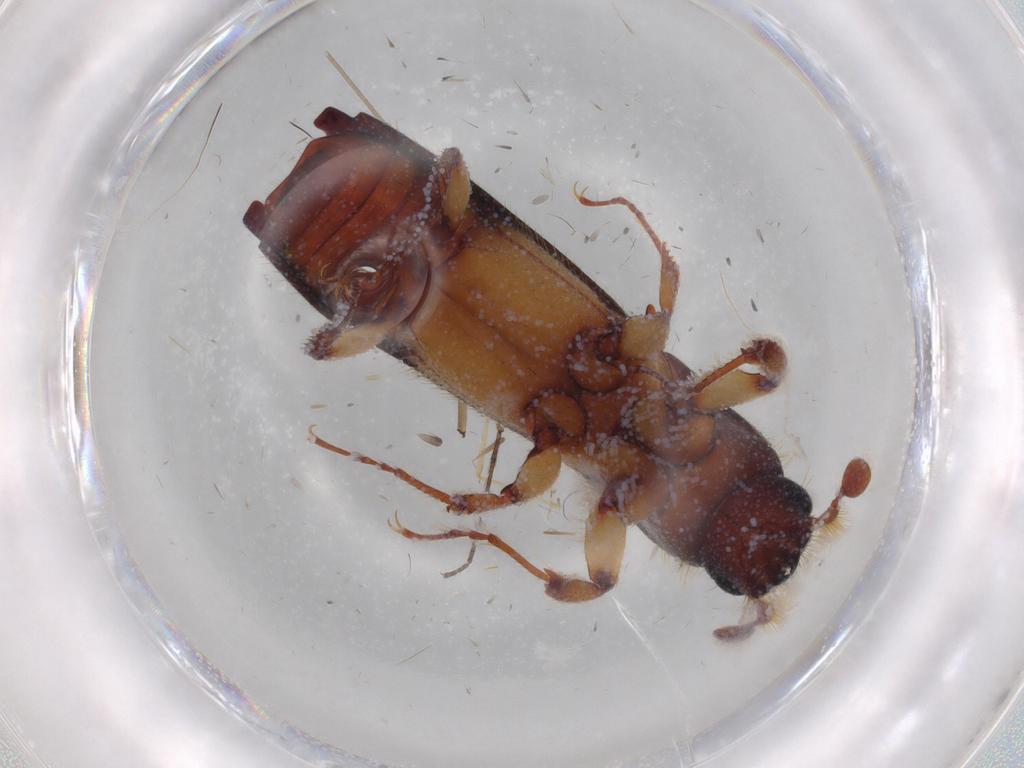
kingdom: Animalia
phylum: Arthropoda
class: Insecta
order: Coleoptera
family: Curculionidae
